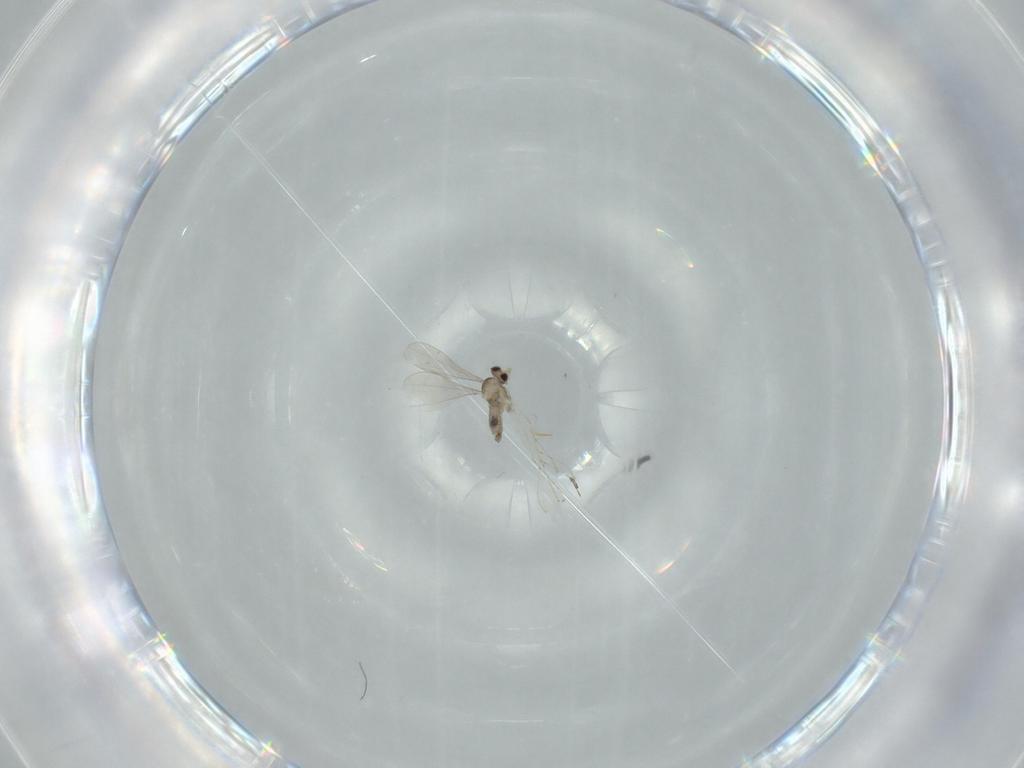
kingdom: Animalia
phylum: Arthropoda
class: Insecta
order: Diptera
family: Cecidomyiidae
